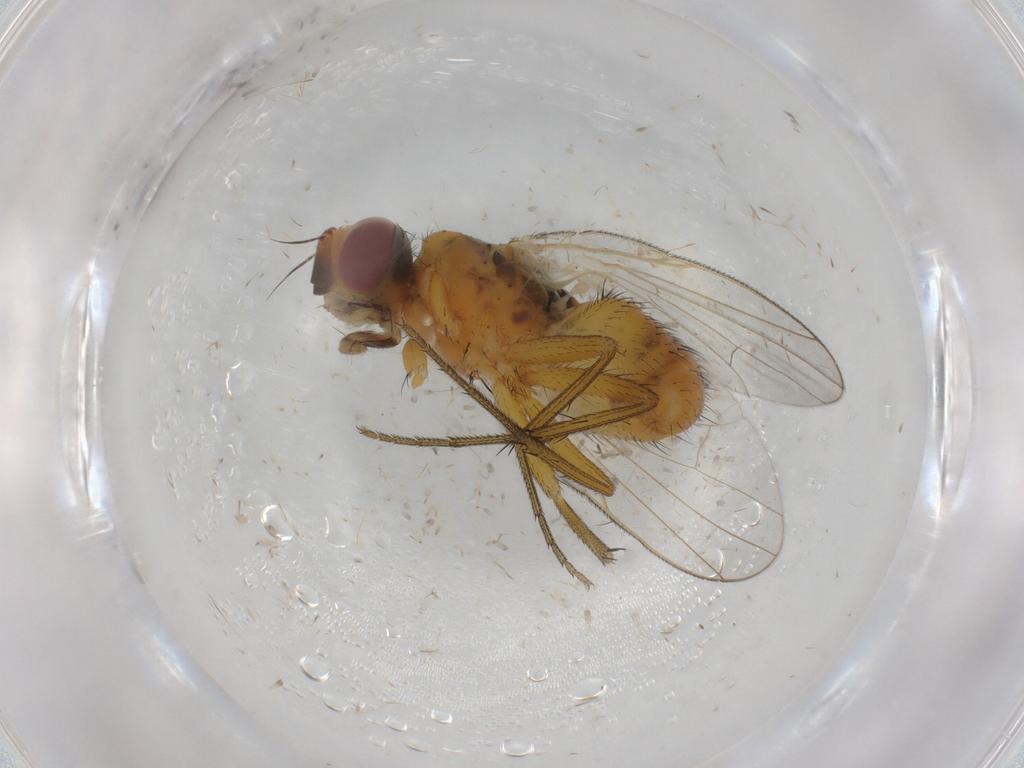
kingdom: Animalia
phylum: Arthropoda
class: Insecta
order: Diptera
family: Muscidae
